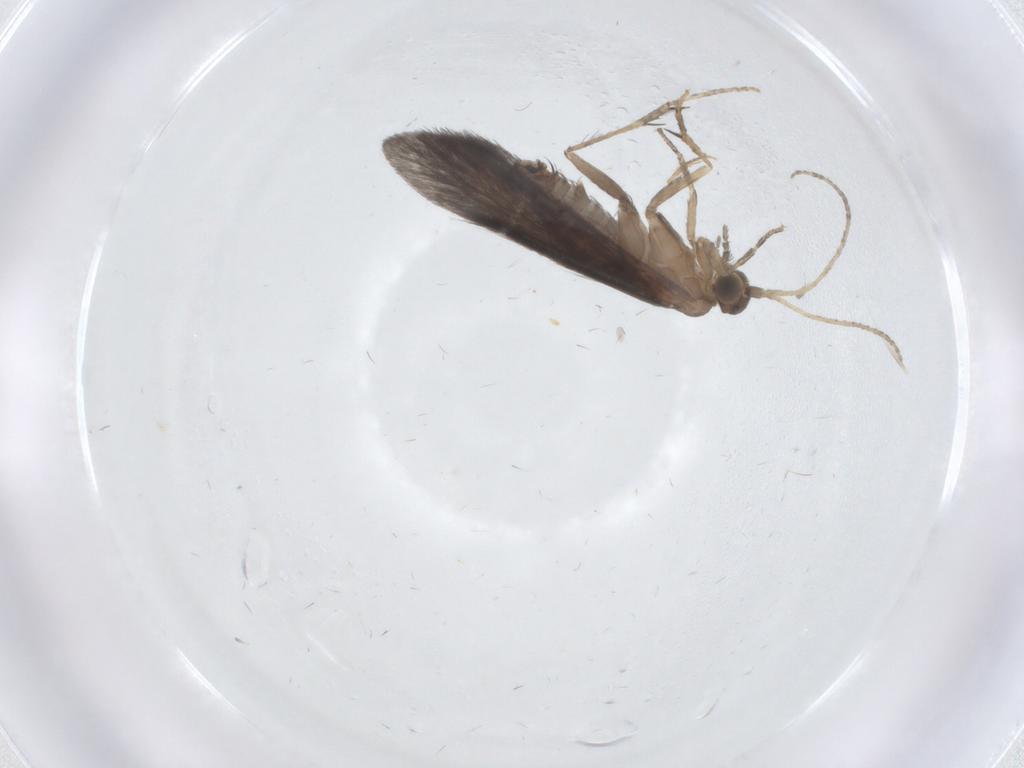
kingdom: Animalia
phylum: Arthropoda
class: Insecta
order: Trichoptera
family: Glossosomatidae
